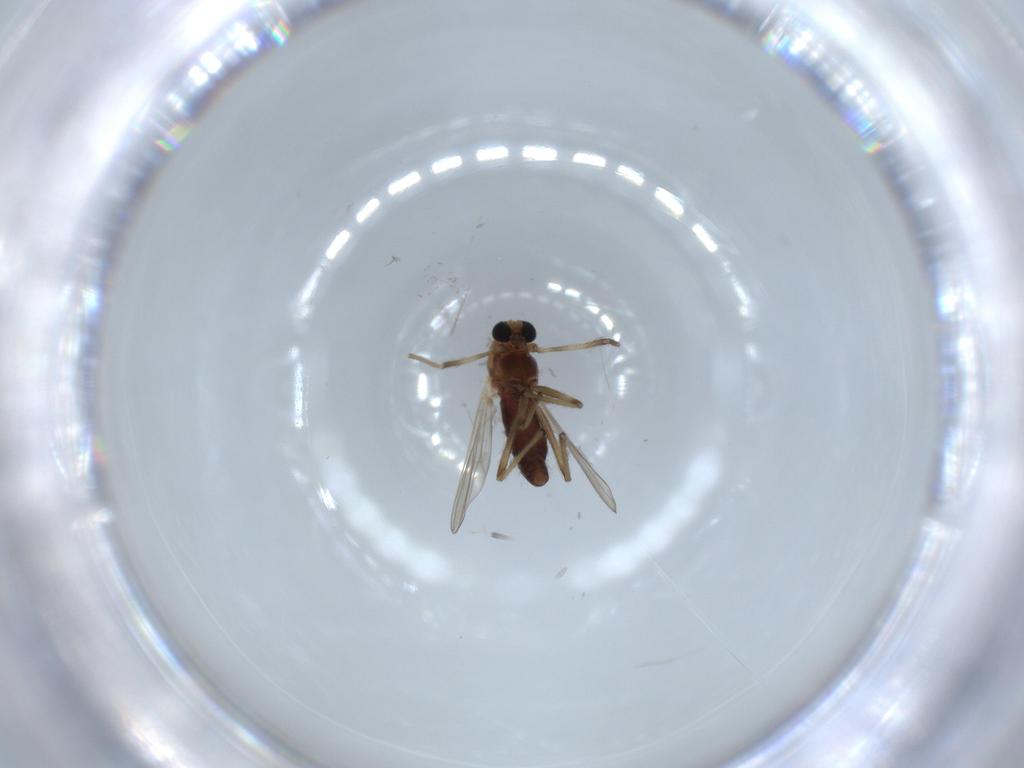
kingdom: Animalia
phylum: Arthropoda
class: Insecta
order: Diptera
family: Chironomidae
